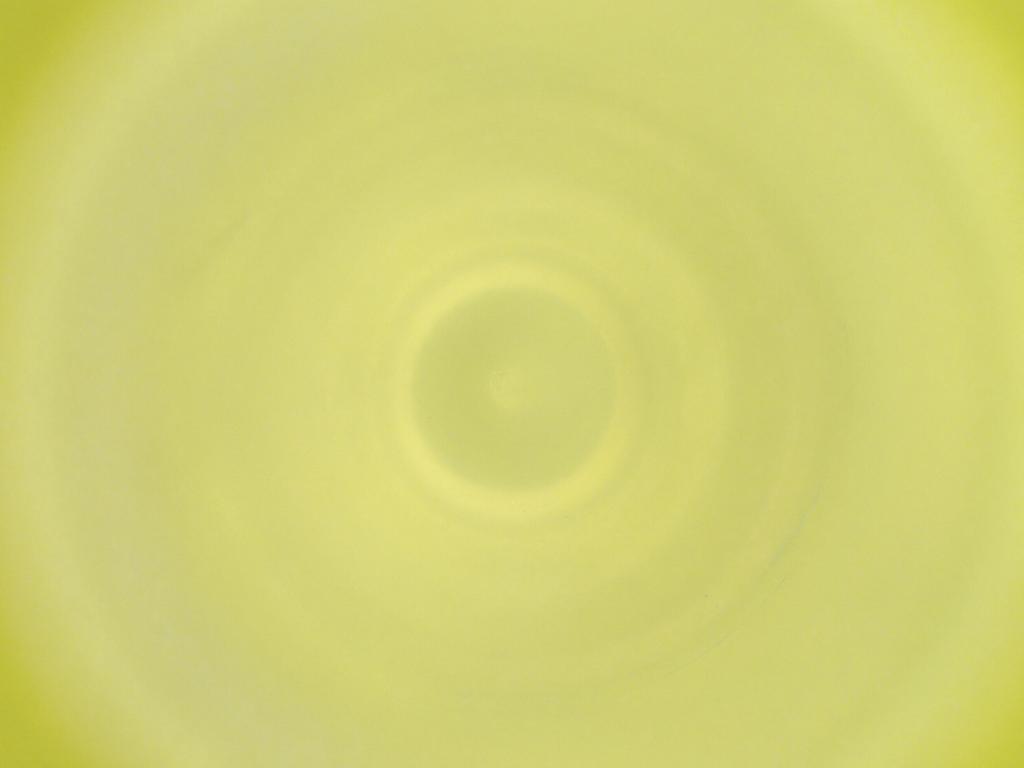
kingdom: Animalia
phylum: Arthropoda
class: Insecta
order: Diptera
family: Cecidomyiidae
